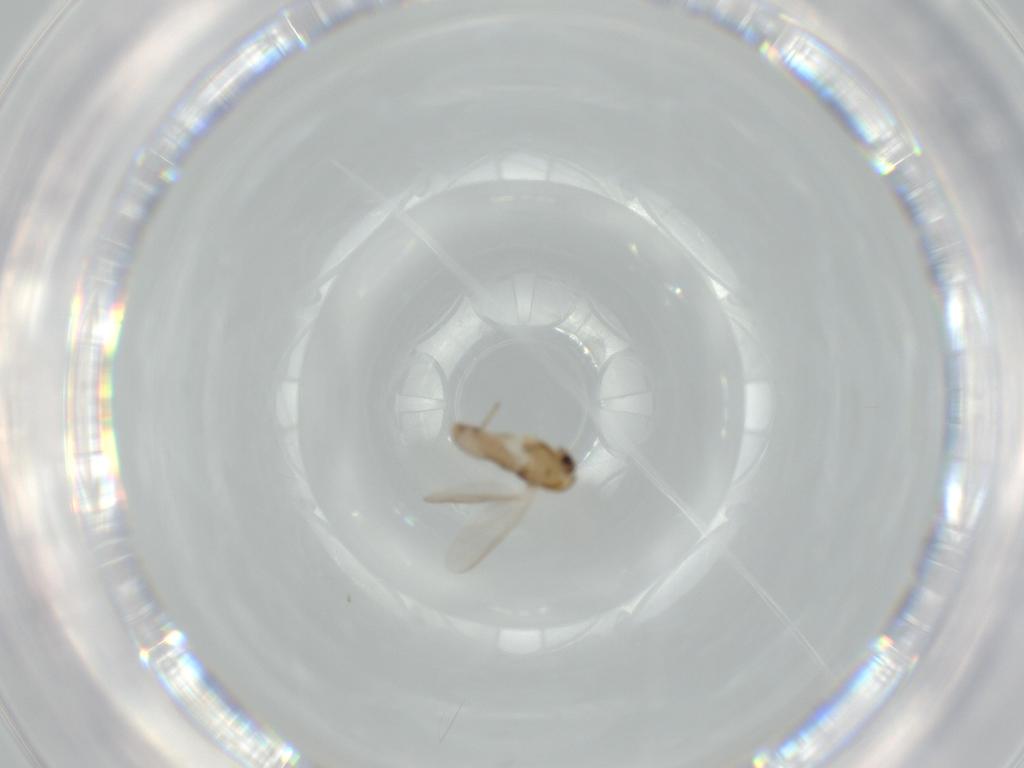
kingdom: Animalia
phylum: Arthropoda
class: Insecta
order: Diptera
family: Chironomidae
